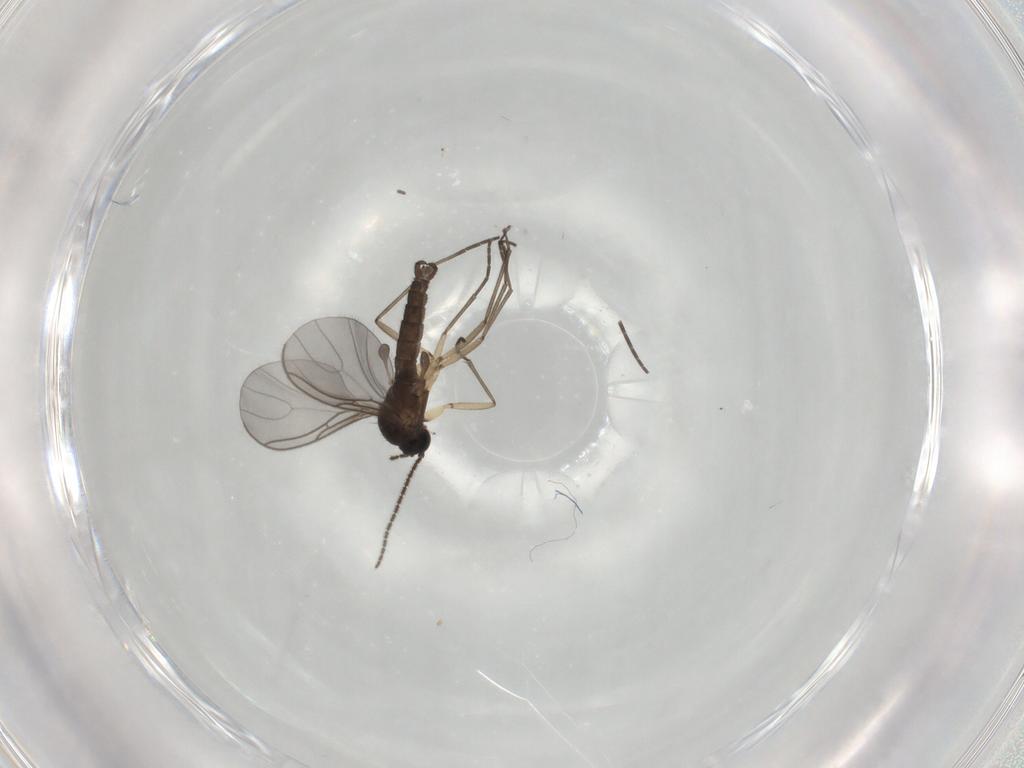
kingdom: Animalia
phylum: Arthropoda
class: Insecta
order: Diptera
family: Sciaridae
